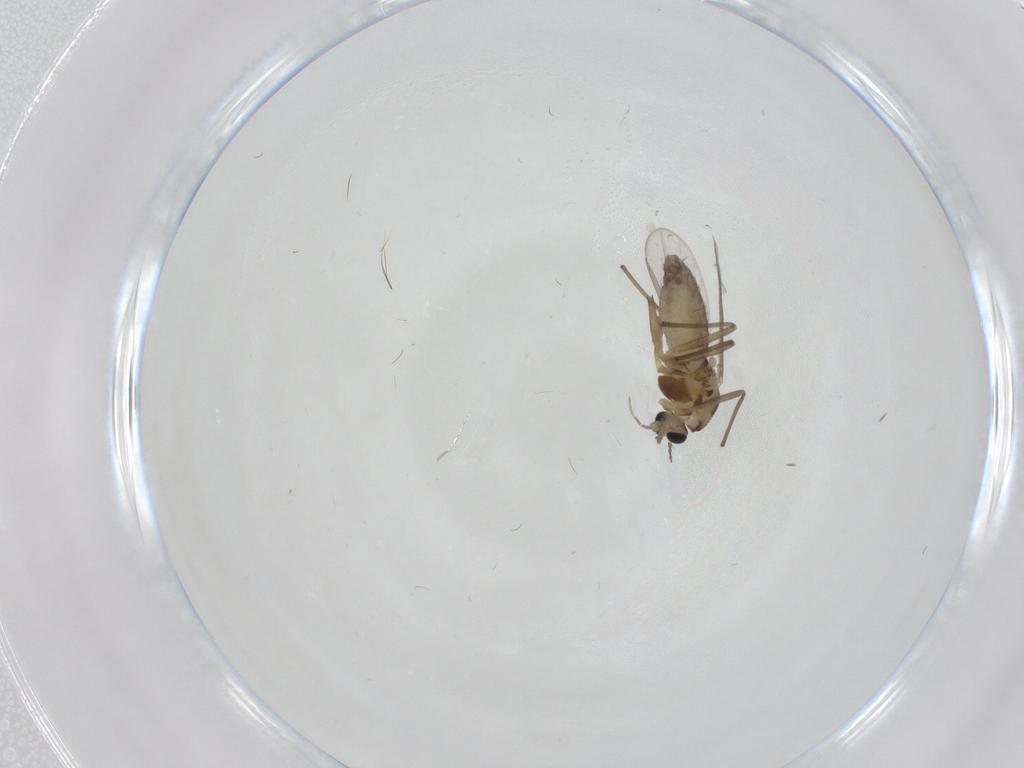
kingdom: Animalia
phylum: Arthropoda
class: Insecta
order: Diptera
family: Chironomidae
